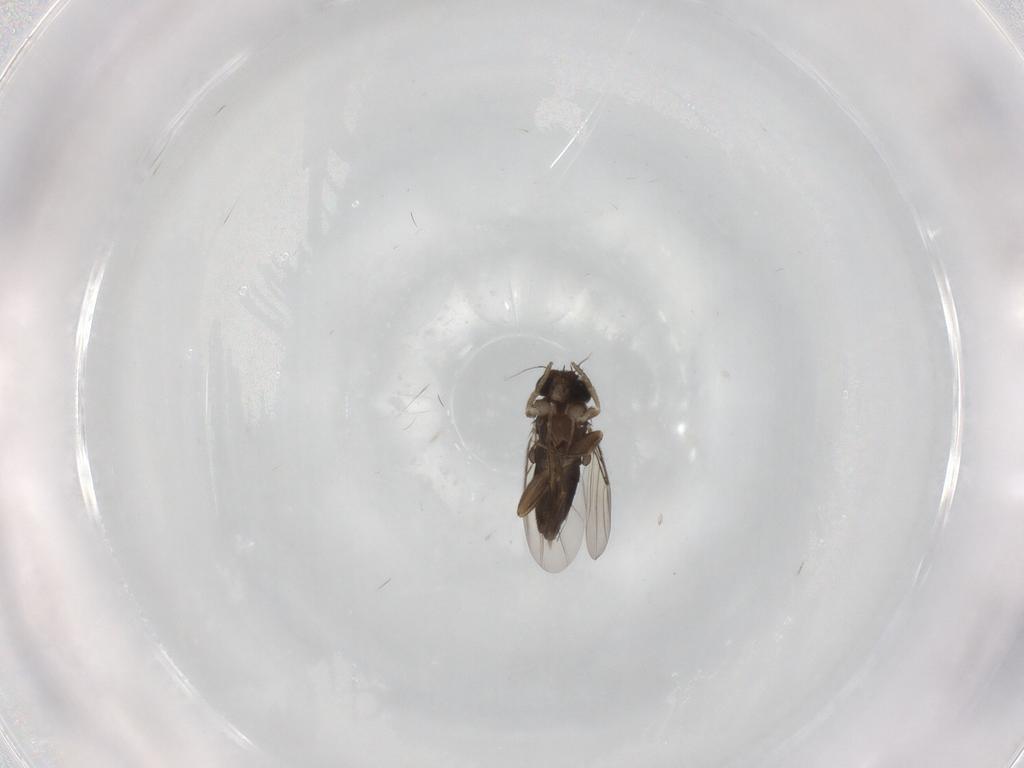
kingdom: Animalia
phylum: Arthropoda
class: Insecta
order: Diptera
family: Phoridae
